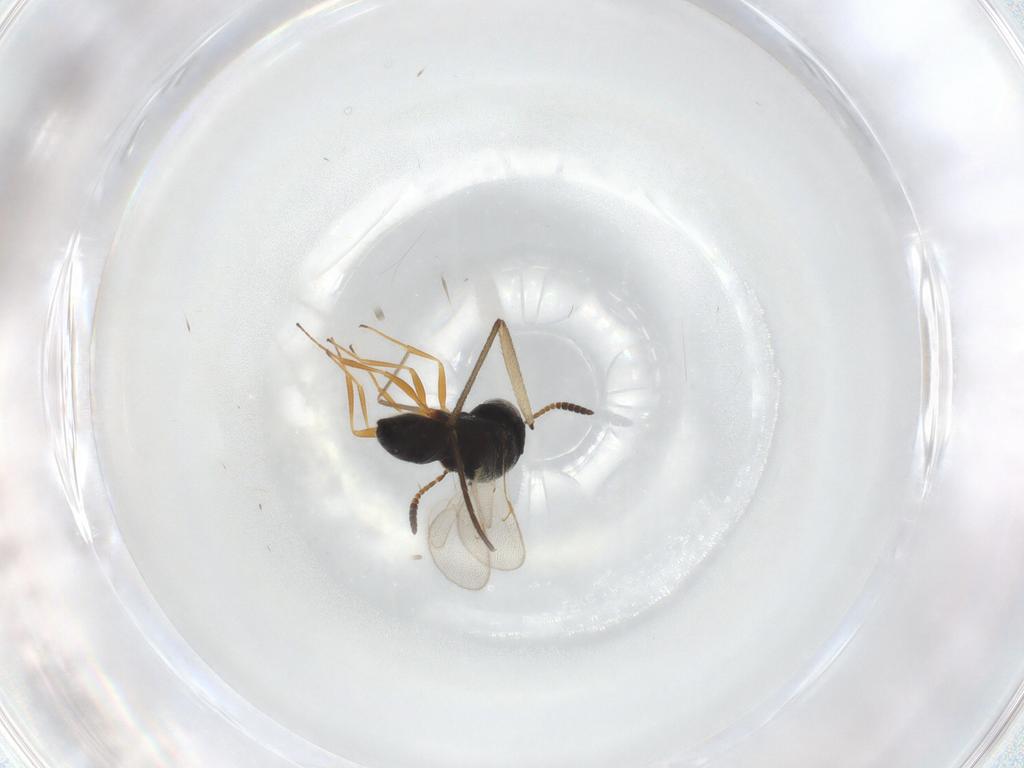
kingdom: Animalia
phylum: Arthropoda
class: Insecta
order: Hymenoptera
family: Scelionidae
